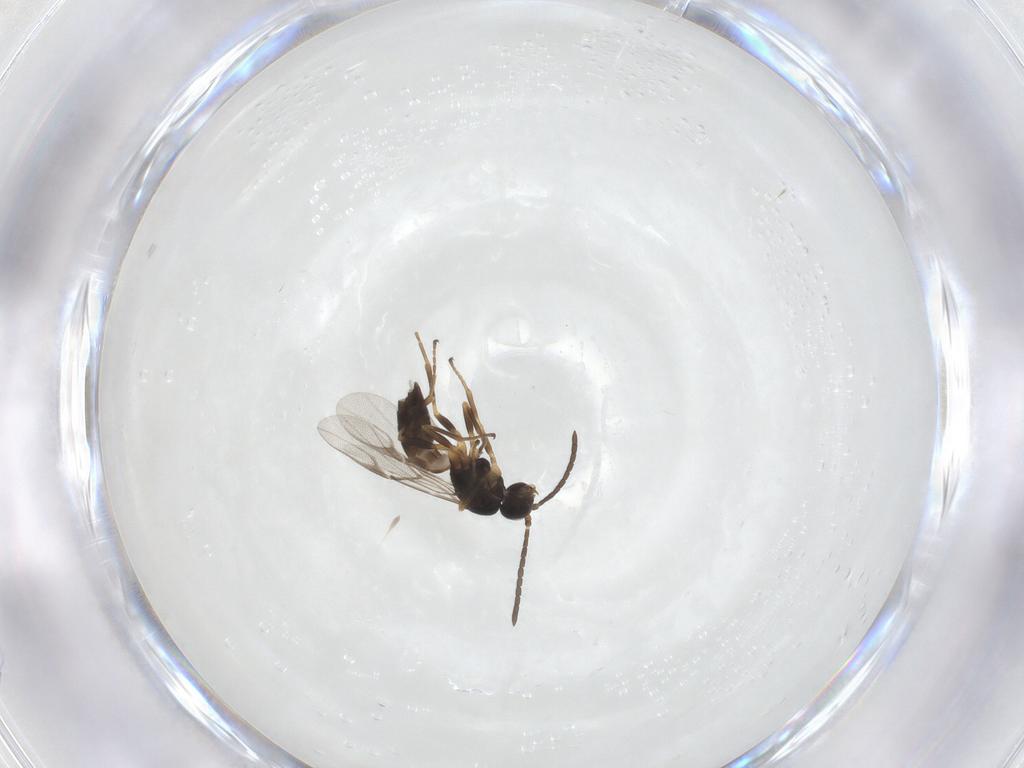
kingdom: Animalia
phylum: Arthropoda
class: Insecta
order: Hymenoptera
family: Braconidae
